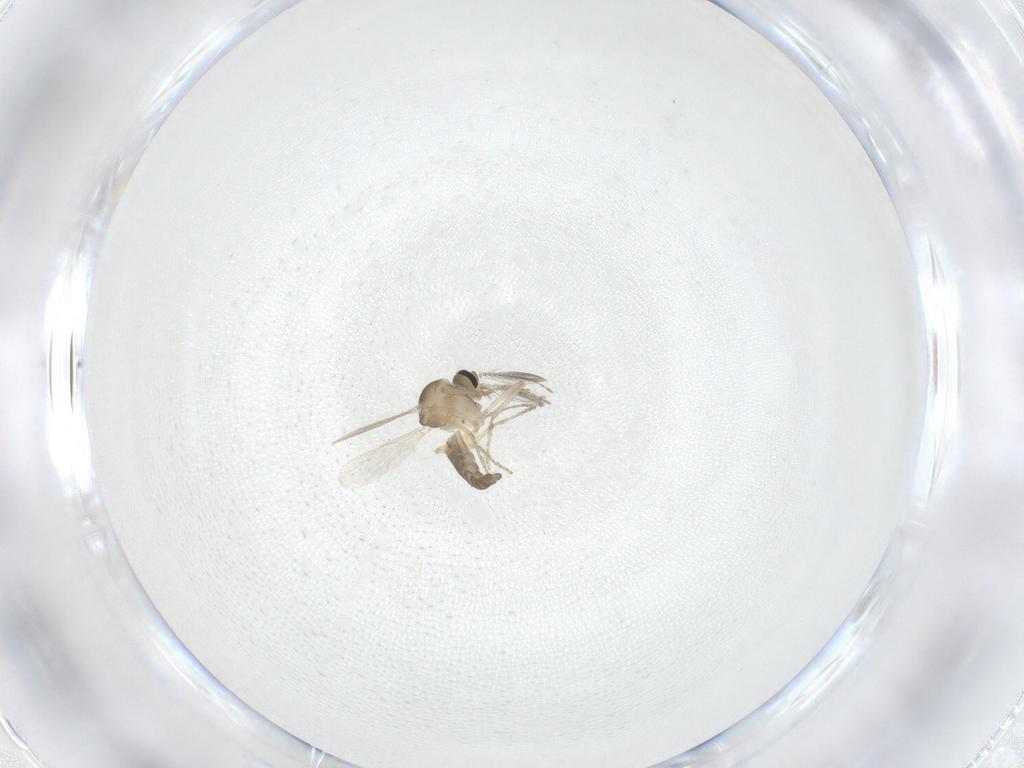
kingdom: Animalia
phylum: Arthropoda
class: Insecta
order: Diptera
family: Ceratopogonidae
